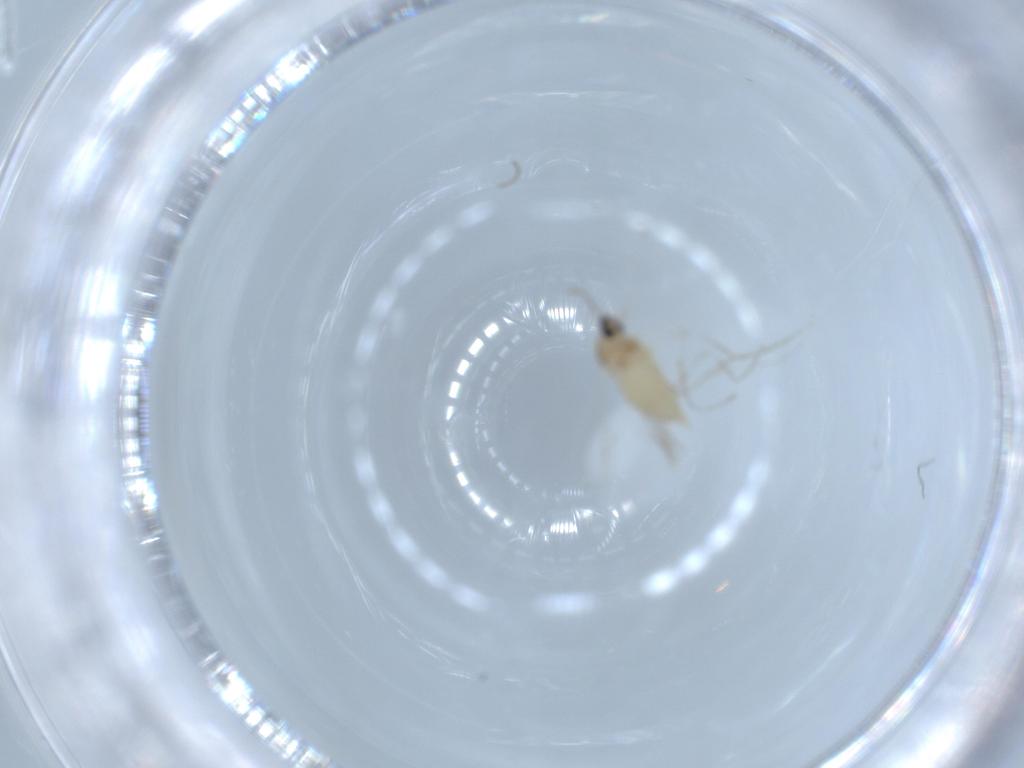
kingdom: Animalia
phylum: Arthropoda
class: Insecta
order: Diptera
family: Cecidomyiidae
